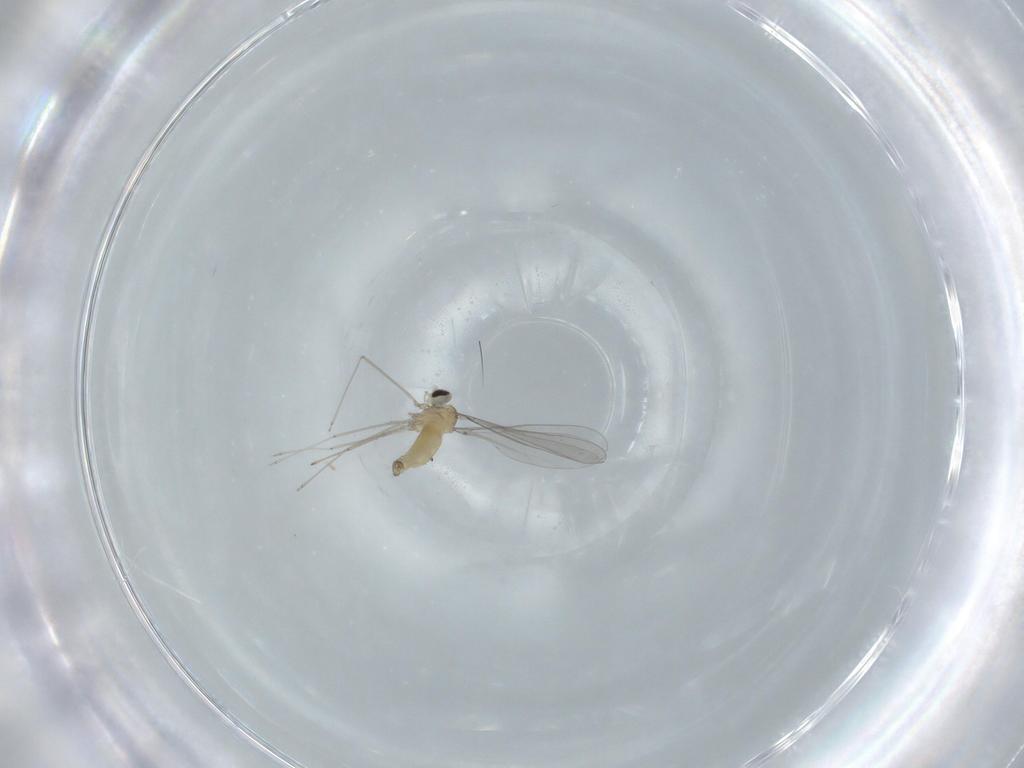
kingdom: Animalia
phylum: Arthropoda
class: Insecta
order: Diptera
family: Cecidomyiidae
